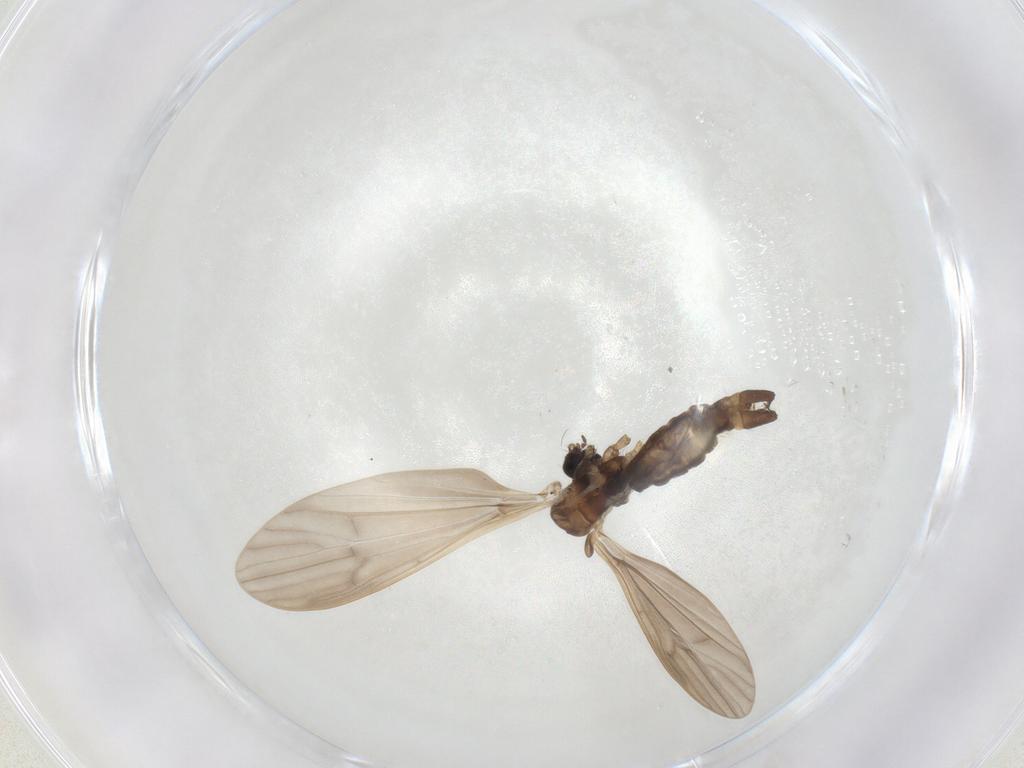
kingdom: Animalia
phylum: Arthropoda
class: Insecta
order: Diptera
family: Limoniidae
